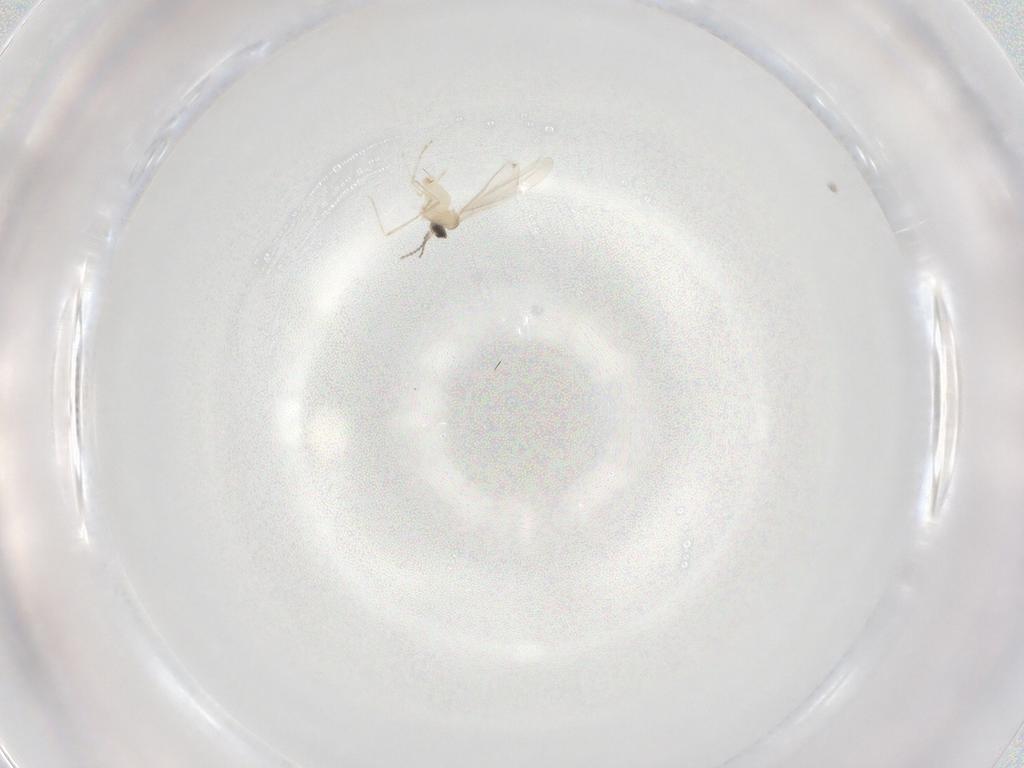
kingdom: Animalia
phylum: Arthropoda
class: Insecta
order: Diptera
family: Cecidomyiidae
